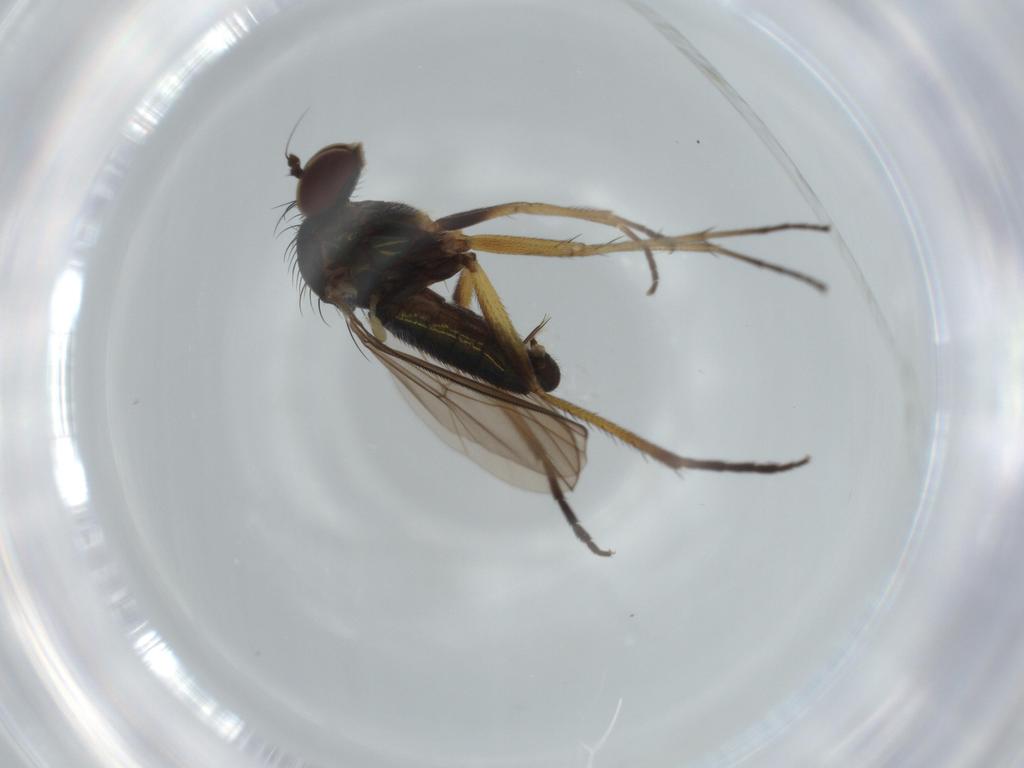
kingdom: Animalia
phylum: Arthropoda
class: Insecta
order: Diptera
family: Dolichopodidae
